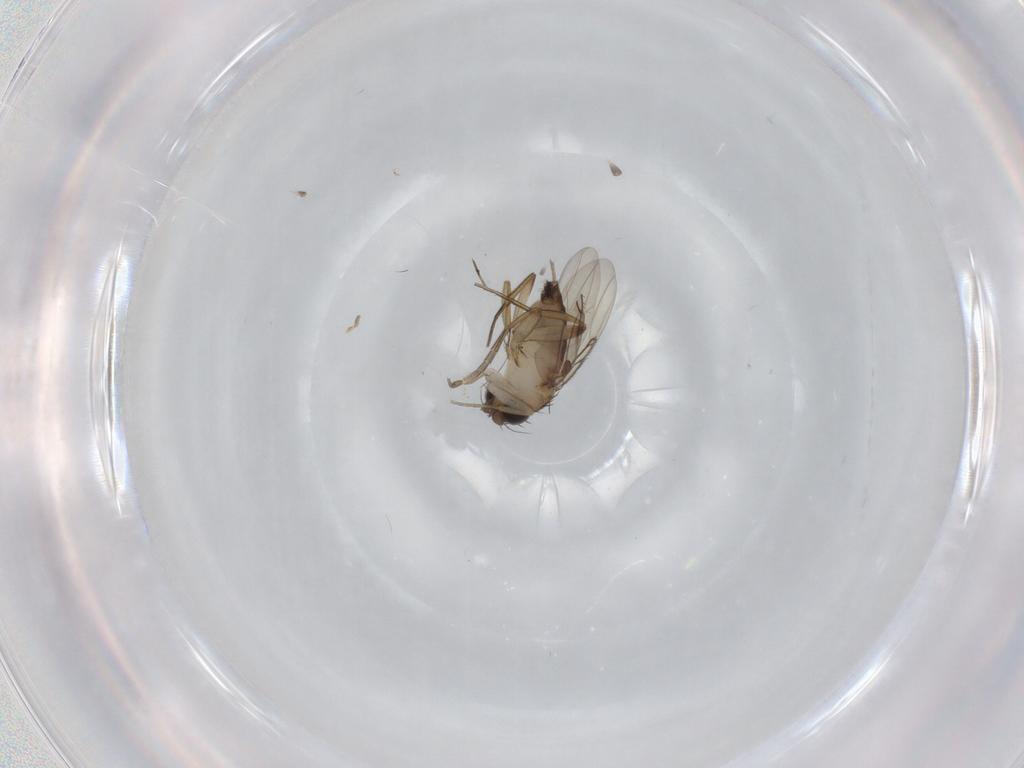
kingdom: Animalia
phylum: Arthropoda
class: Insecta
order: Diptera
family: Phoridae
